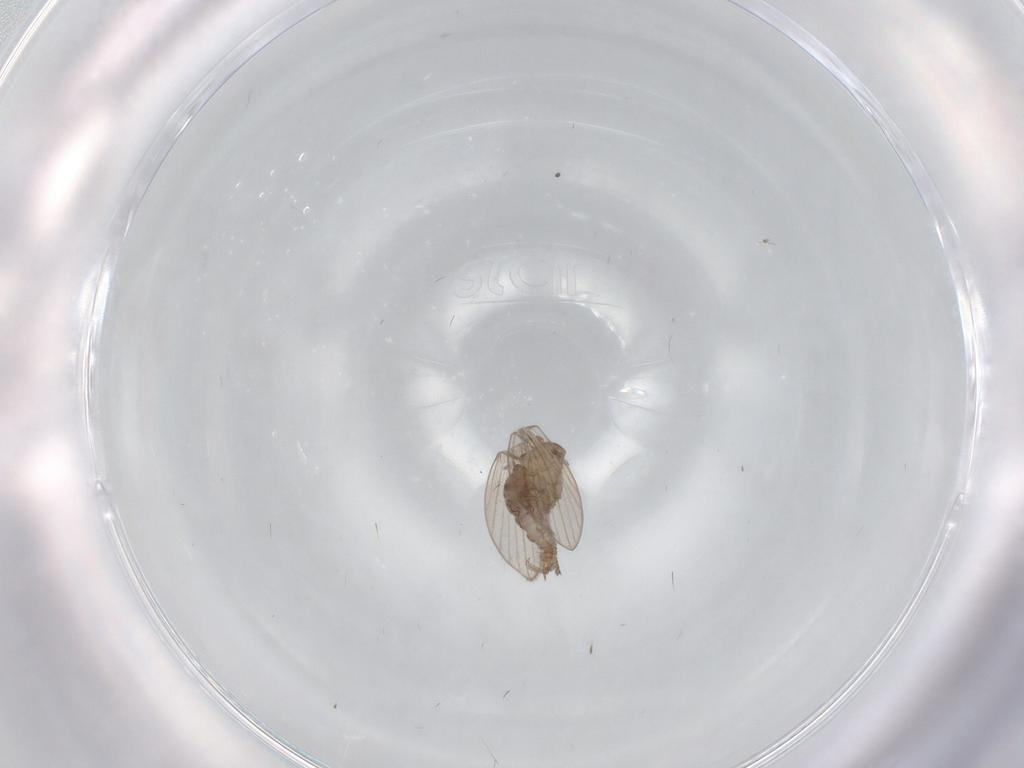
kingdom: Animalia
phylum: Arthropoda
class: Insecta
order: Diptera
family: Psychodidae
